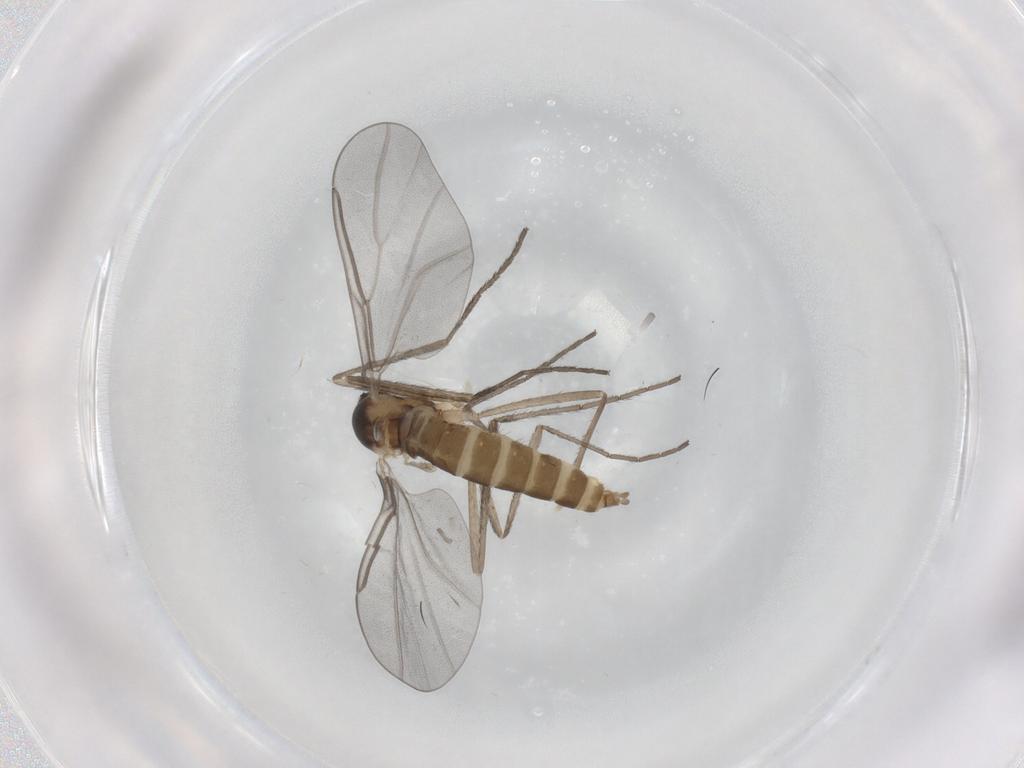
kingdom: Animalia
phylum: Arthropoda
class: Insecta
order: Diptera
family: Cecidomyiidae
